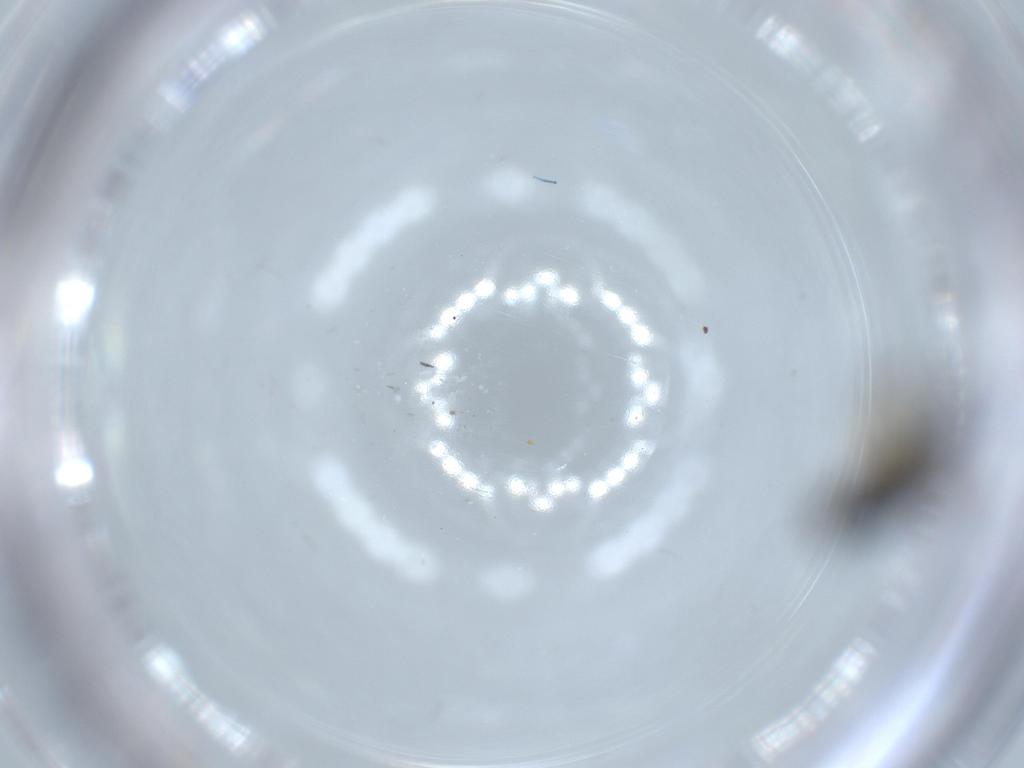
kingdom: Animalia
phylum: Arthropoda
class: Insecta
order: Diptera
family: Sciaridae
